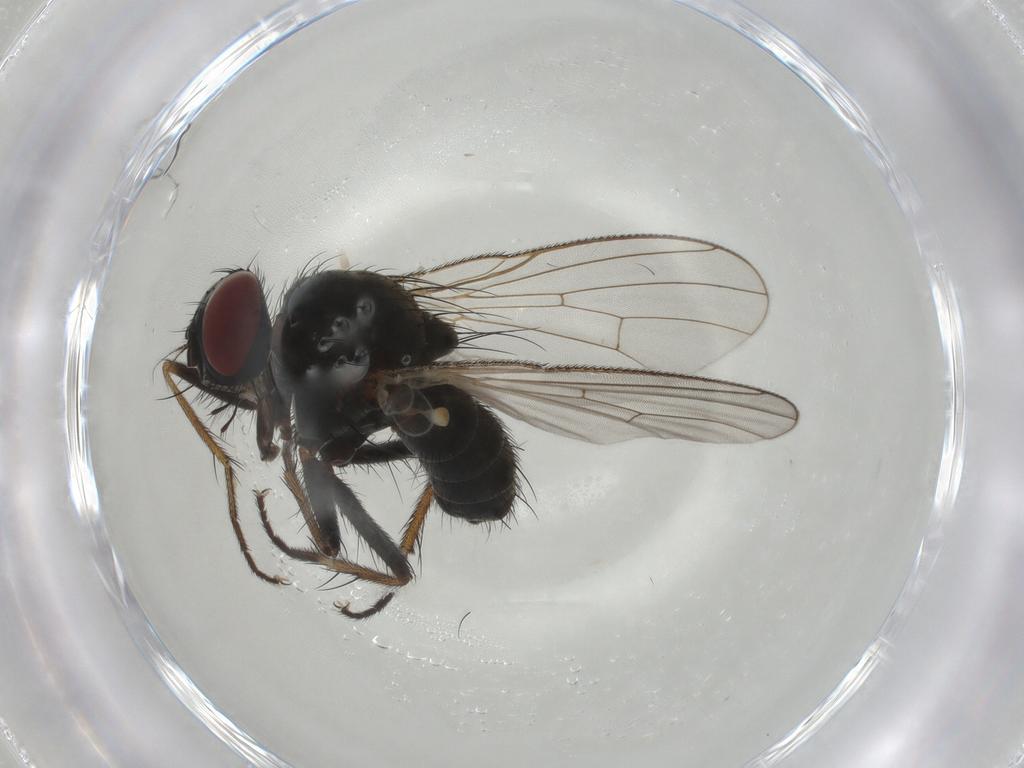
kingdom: Animalia
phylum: Arthropoda
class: Insecta
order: Diptera
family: Muscidae
